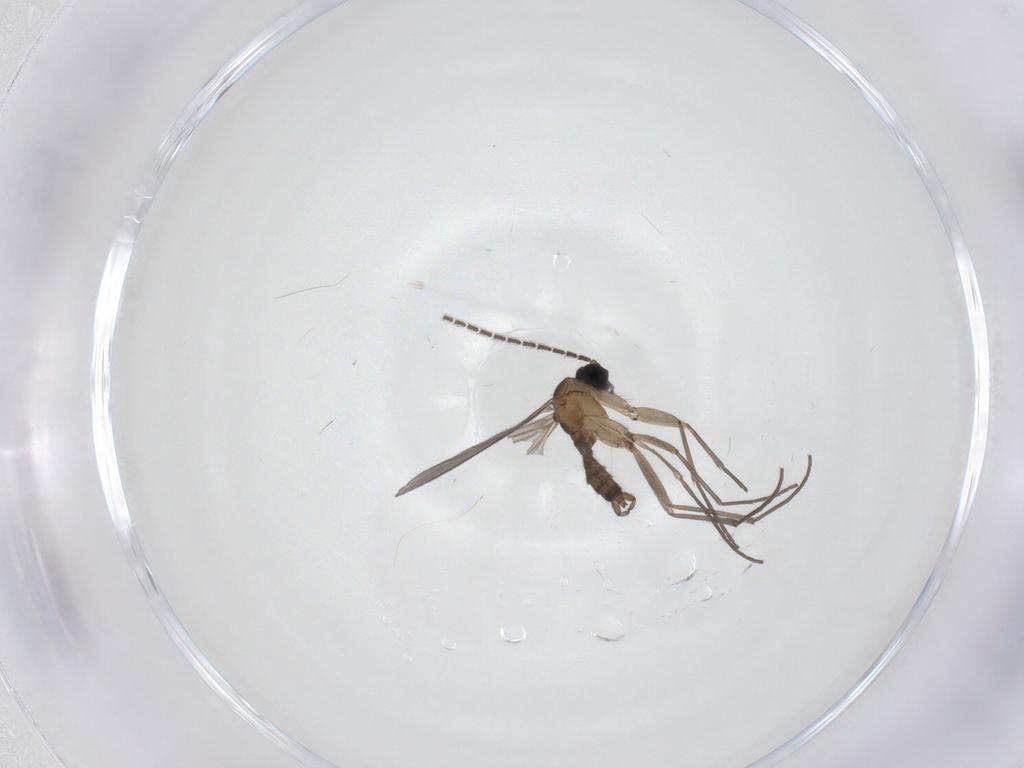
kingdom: Animalia
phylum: Arthropoda
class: Insecta
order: Diptera
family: Sciaridae
